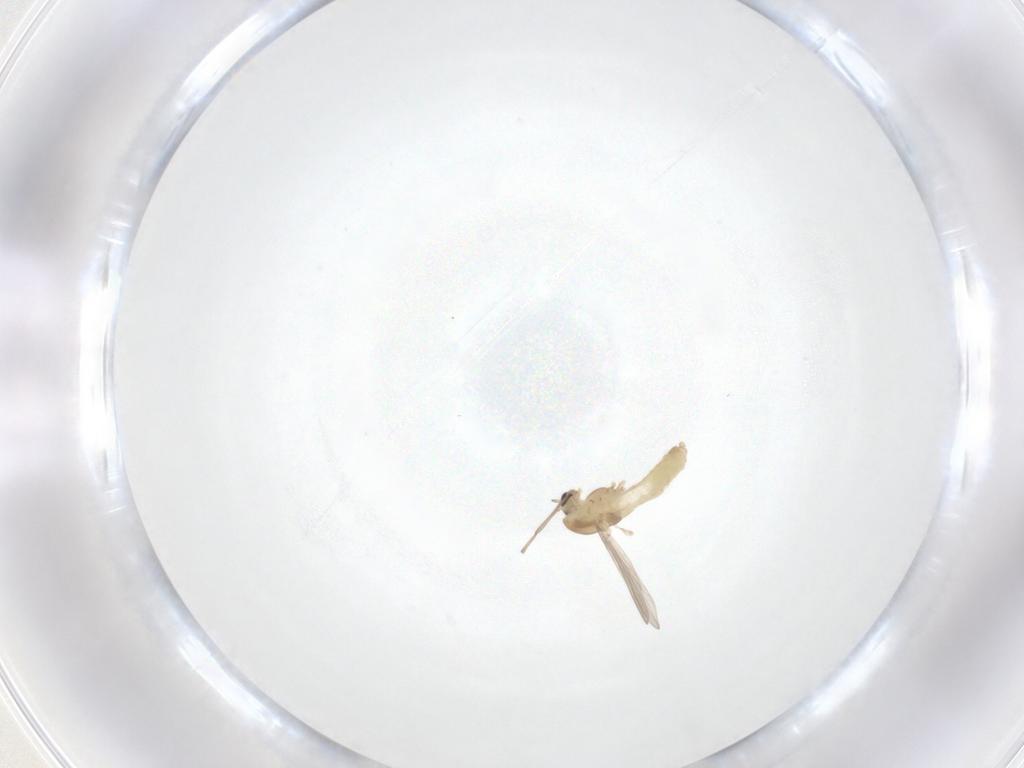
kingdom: Animalia
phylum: Arthropoda
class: Insecta
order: Diptera
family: Chironomidae
